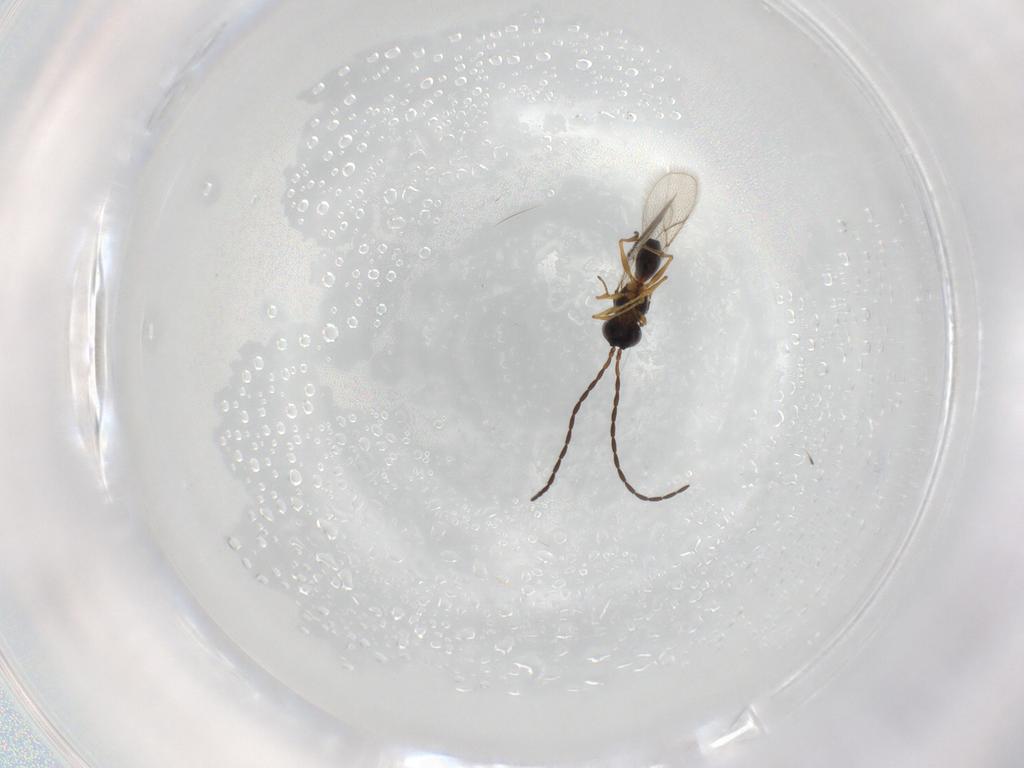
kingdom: Animalia
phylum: Arthropoda
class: Insecta
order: Hymenoptera
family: Figitidae
